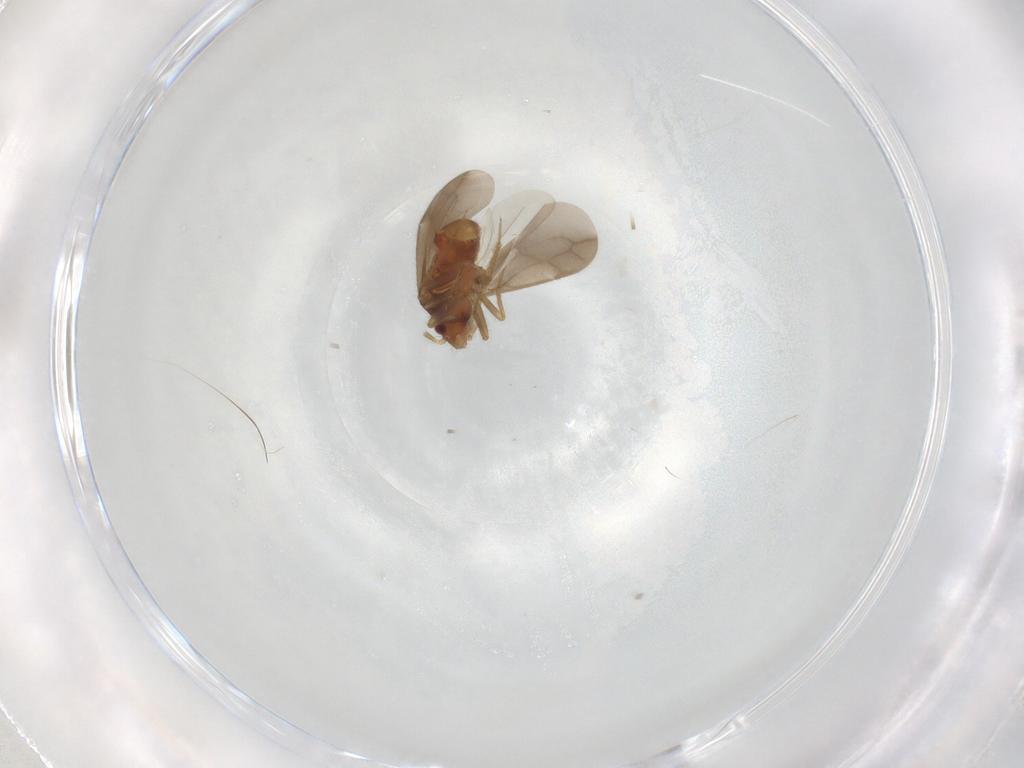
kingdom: Animalia
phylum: Arthropoda
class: Insecta
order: Hemiptera
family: Ceratocombidae
